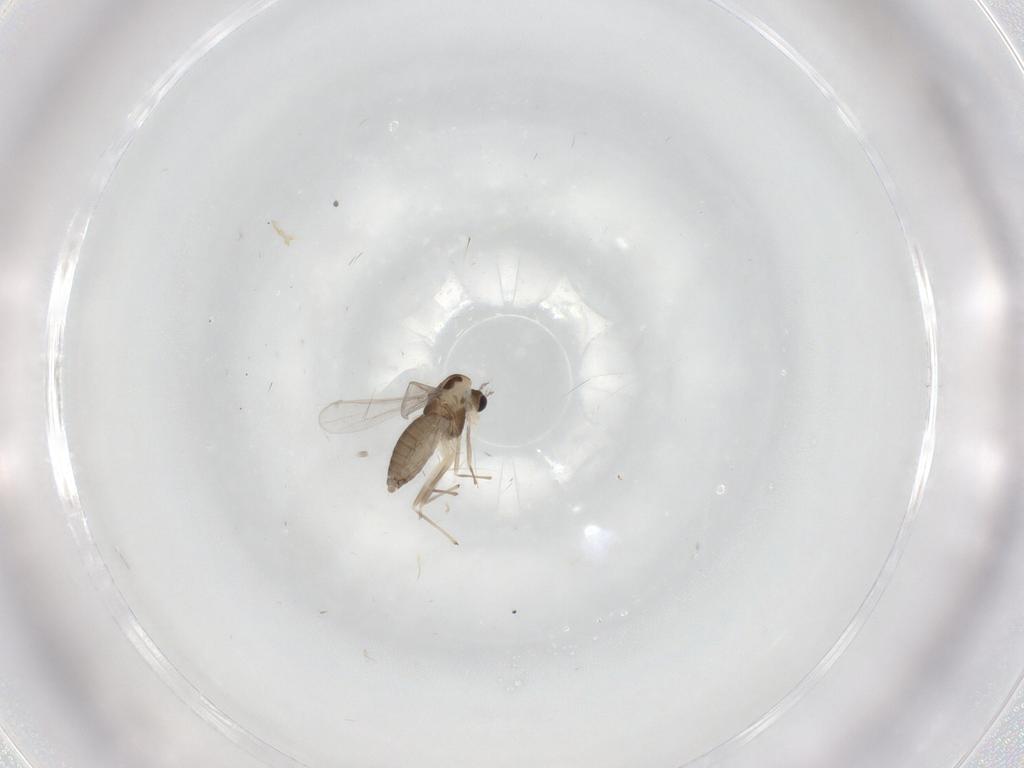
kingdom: Animalia
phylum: Arthropoda
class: Insecta
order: Diptera
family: Chironomidae
